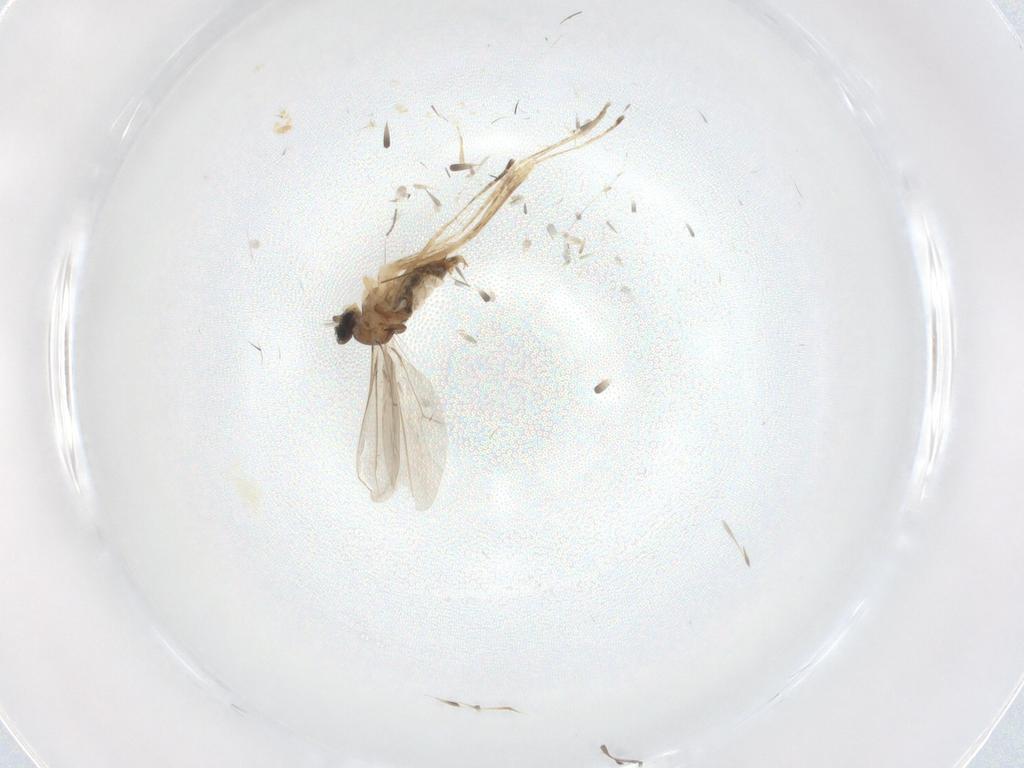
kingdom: Animalia
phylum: Arthropoda
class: Insecta
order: Diptera
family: Cecidomyiidae
